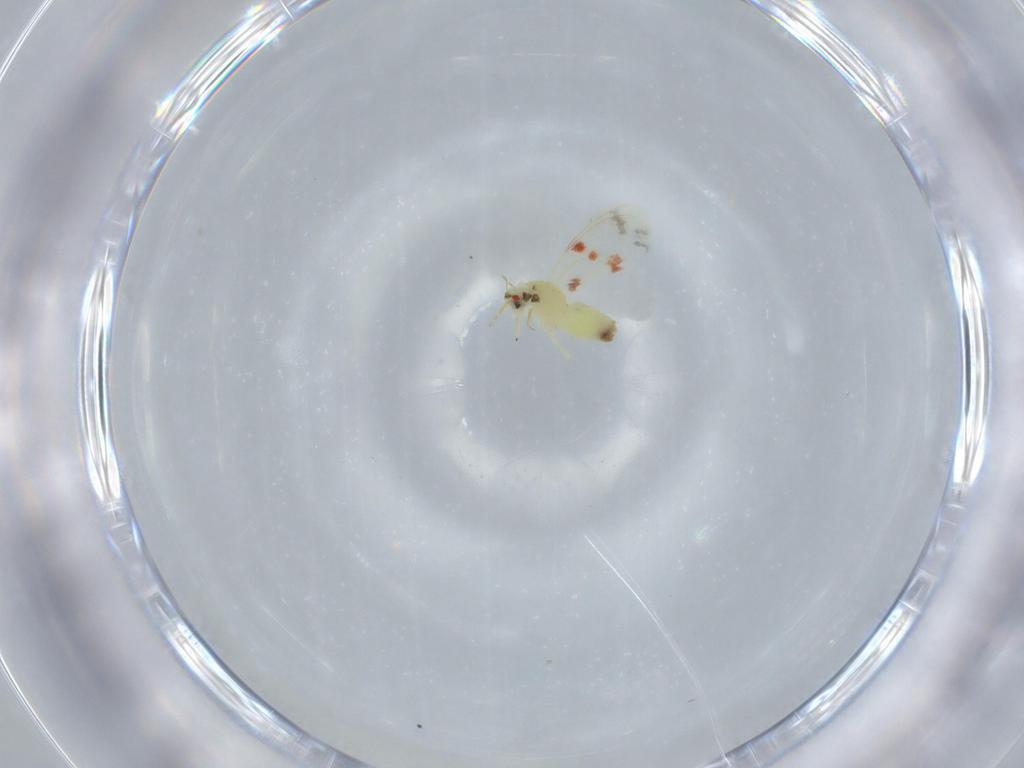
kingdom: Animalia
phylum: Arthropoda
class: Insecta
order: Hemiptera
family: Aleyrodidae
